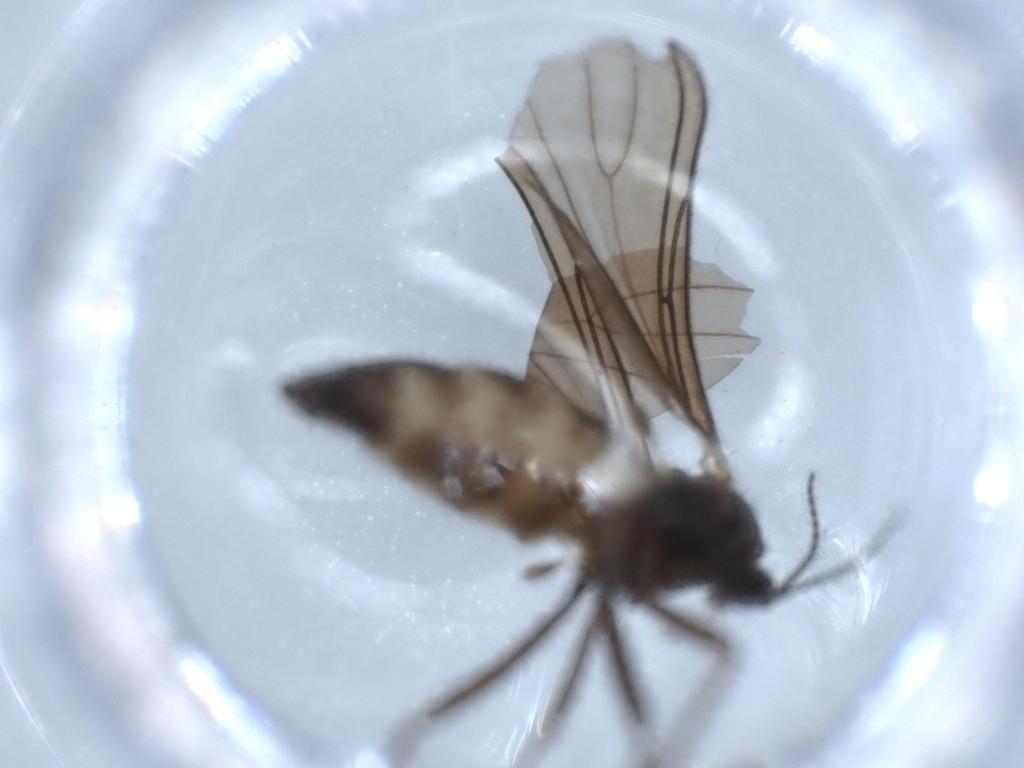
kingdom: Animalia
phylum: Arthropoda
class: Insecta
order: Diptera
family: Sciaridae
